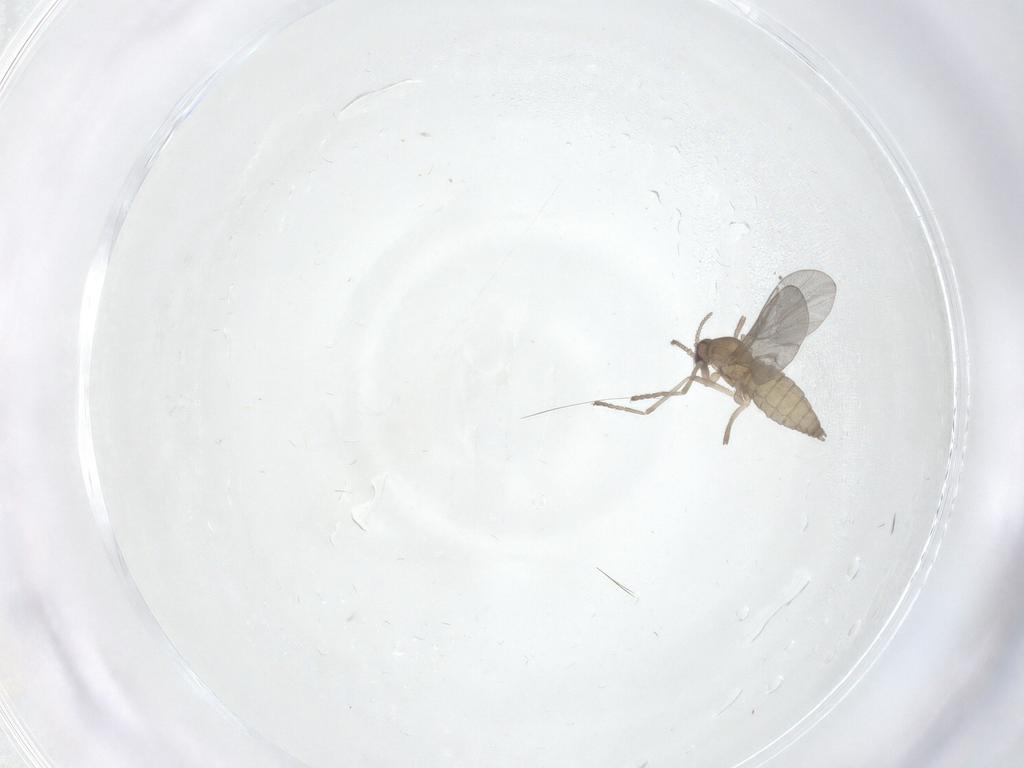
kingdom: Animalia
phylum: Arthropoda
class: Insecta
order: Diptera
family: Cecidomyiidae
